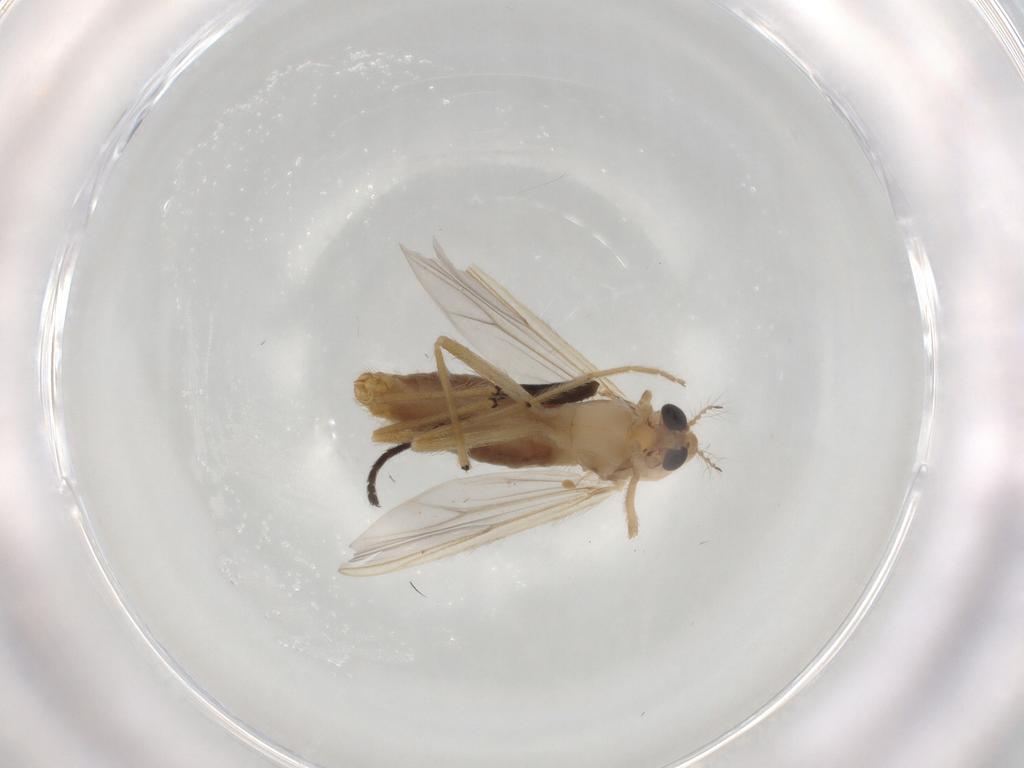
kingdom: Animalia
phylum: Arthropoda
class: Insecta
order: Diptera
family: Chironomidae
